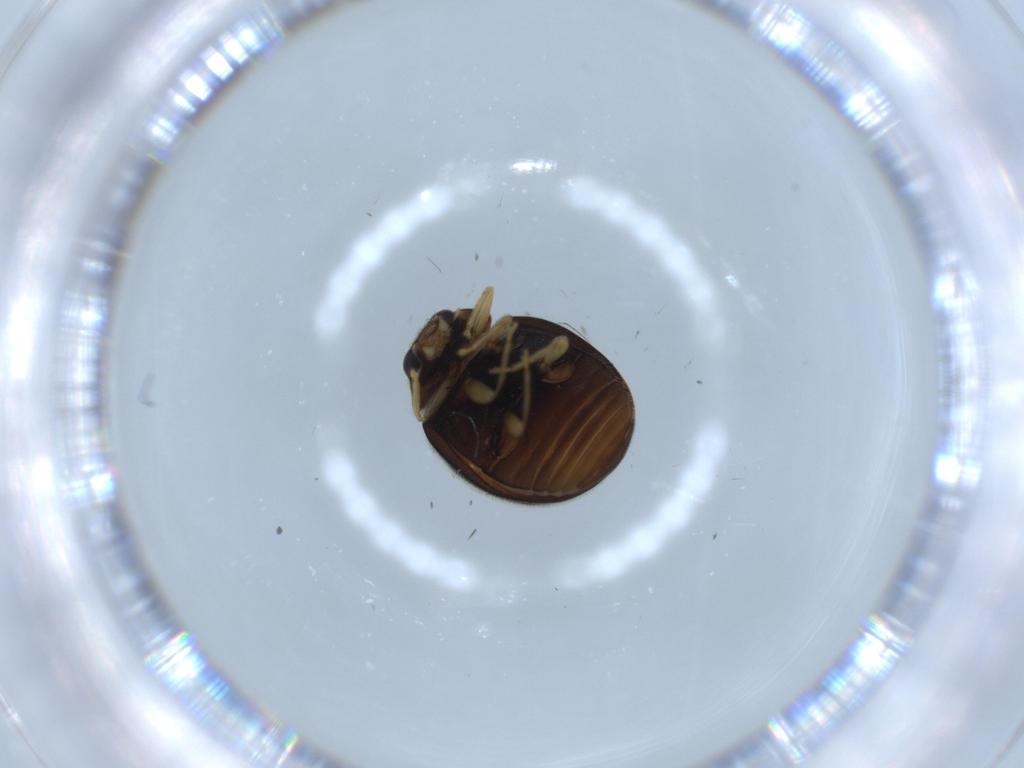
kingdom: Animalia
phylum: Arthropoda
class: Insecta
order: Coleoptera
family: Coccinellidae
